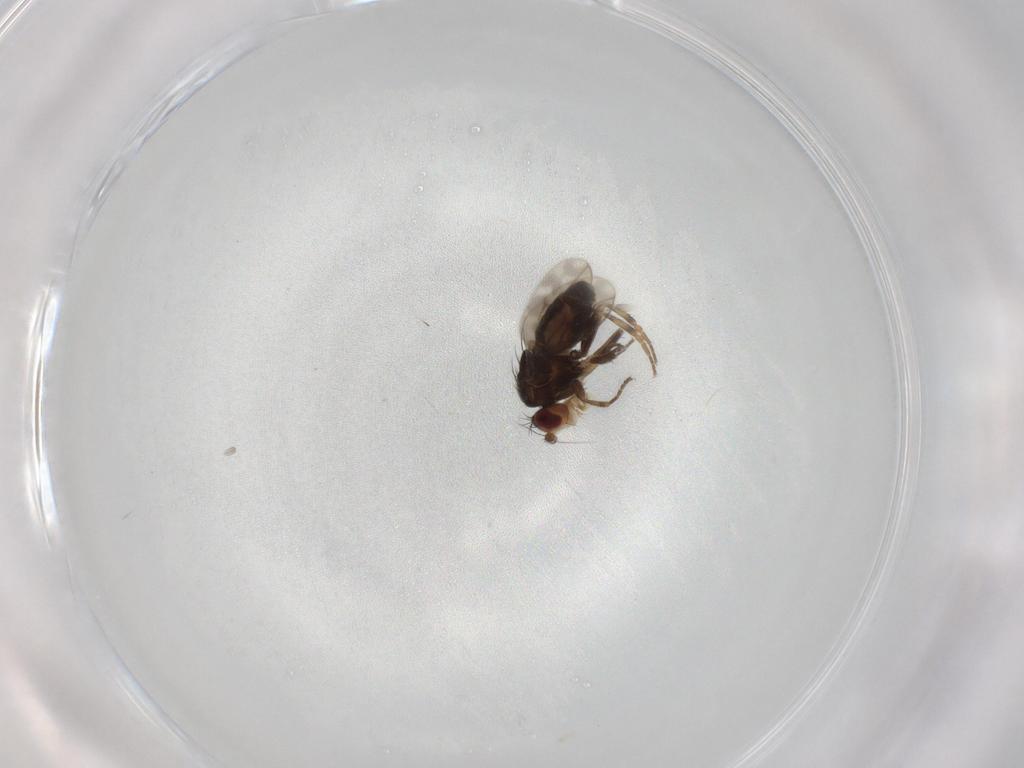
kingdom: Animalia
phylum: Arthropoda
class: Insecta
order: Diptera
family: Sphaeroceridae
